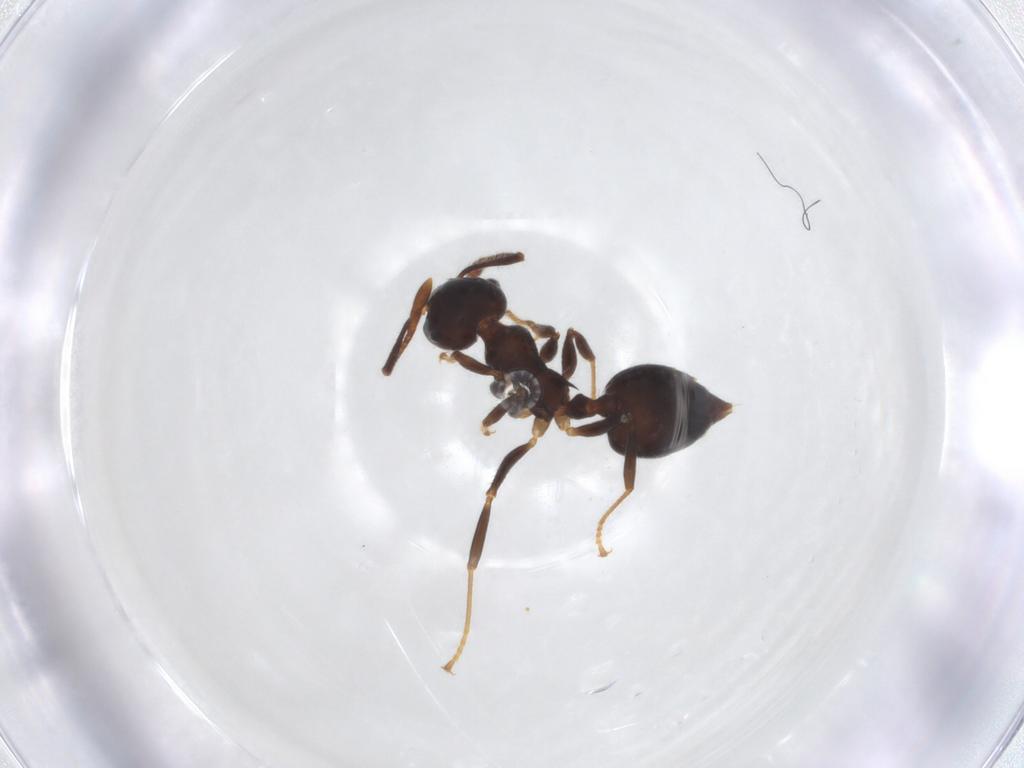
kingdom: Animalia
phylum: Arthropoda
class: Insecta
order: Hymenoptera
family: Formicidae
